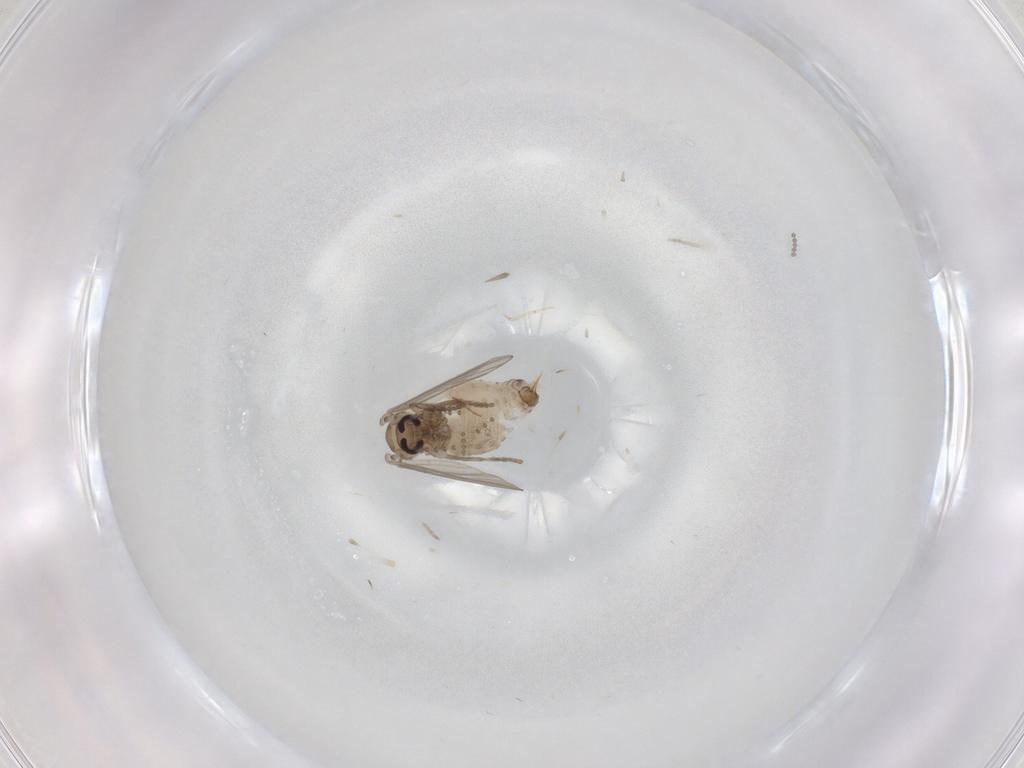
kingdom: Animalia
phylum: Arthropoda
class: Insecta
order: Diptera
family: Psychodidae
